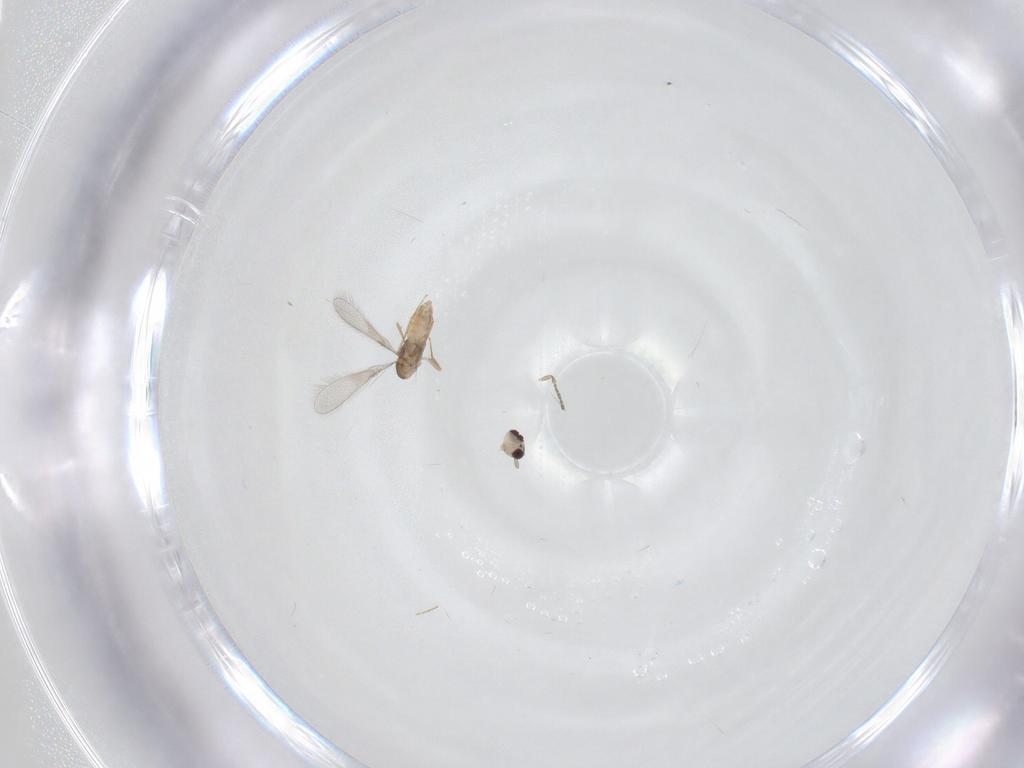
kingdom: Animalia
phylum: Arthropoda
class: Insecta
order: Hymenoptera
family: Mymaridae
